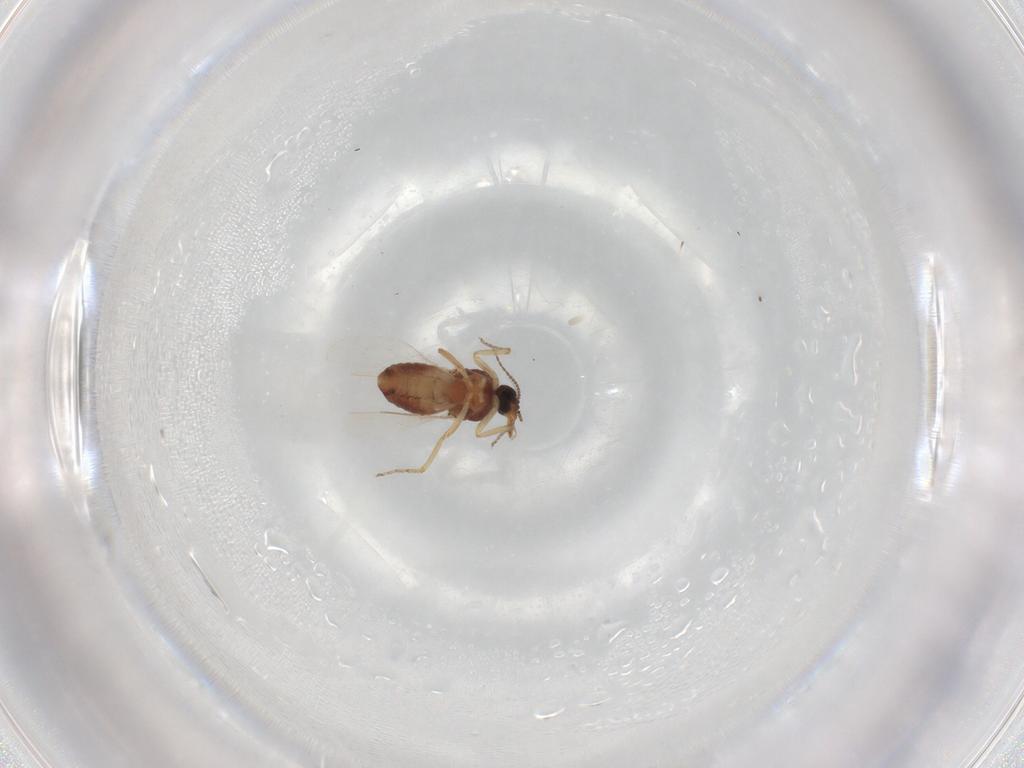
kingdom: Animalia
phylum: Arthropoda
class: Insecta
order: Diptera
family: Ceratopogonidae
